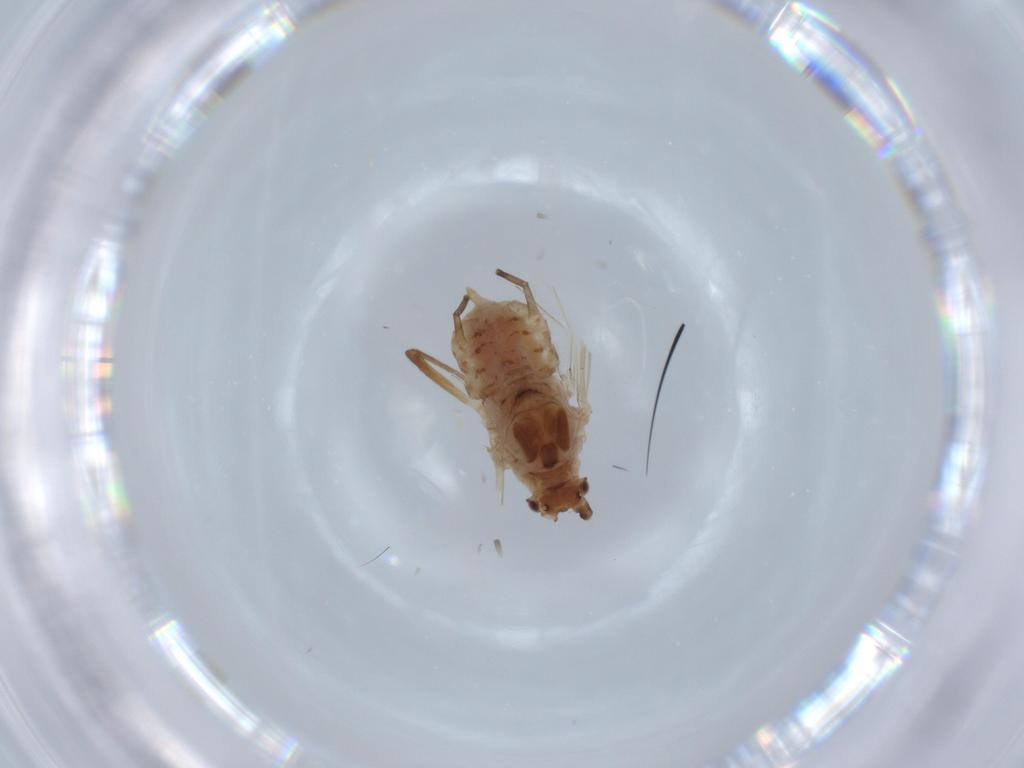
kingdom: Animalia
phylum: Arthropoda
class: Insecta
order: Hemiptera
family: Aphididae
